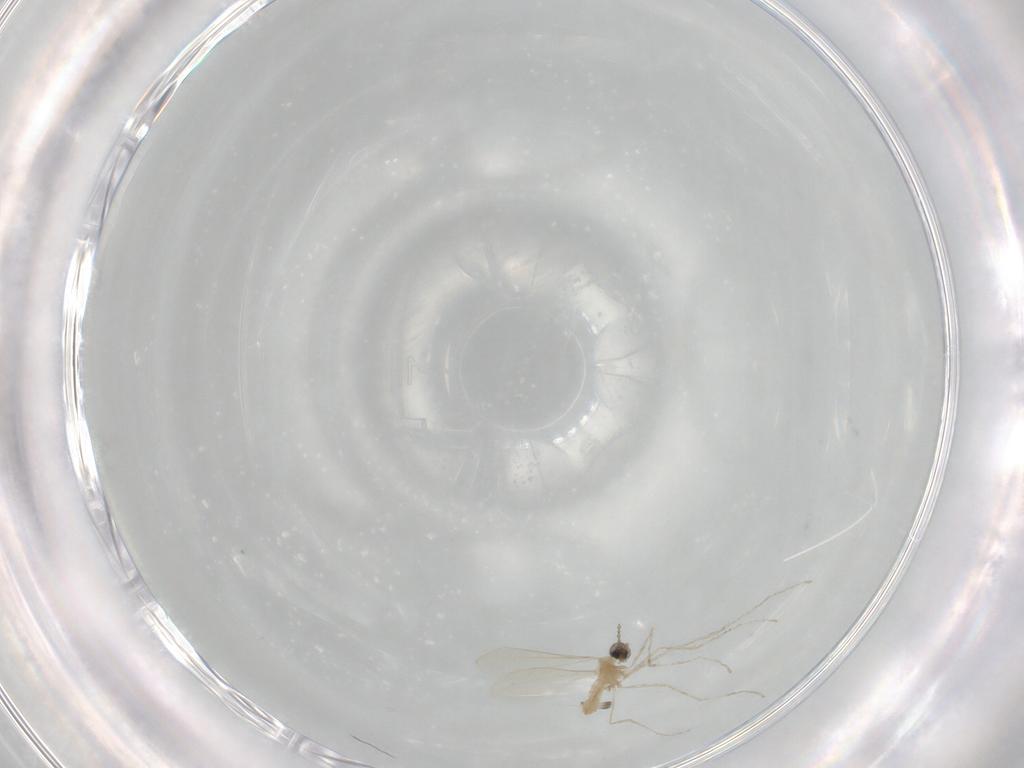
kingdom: Animalia
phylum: Arthropoda
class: Insecta
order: Diptera
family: Cecidomyiidae
